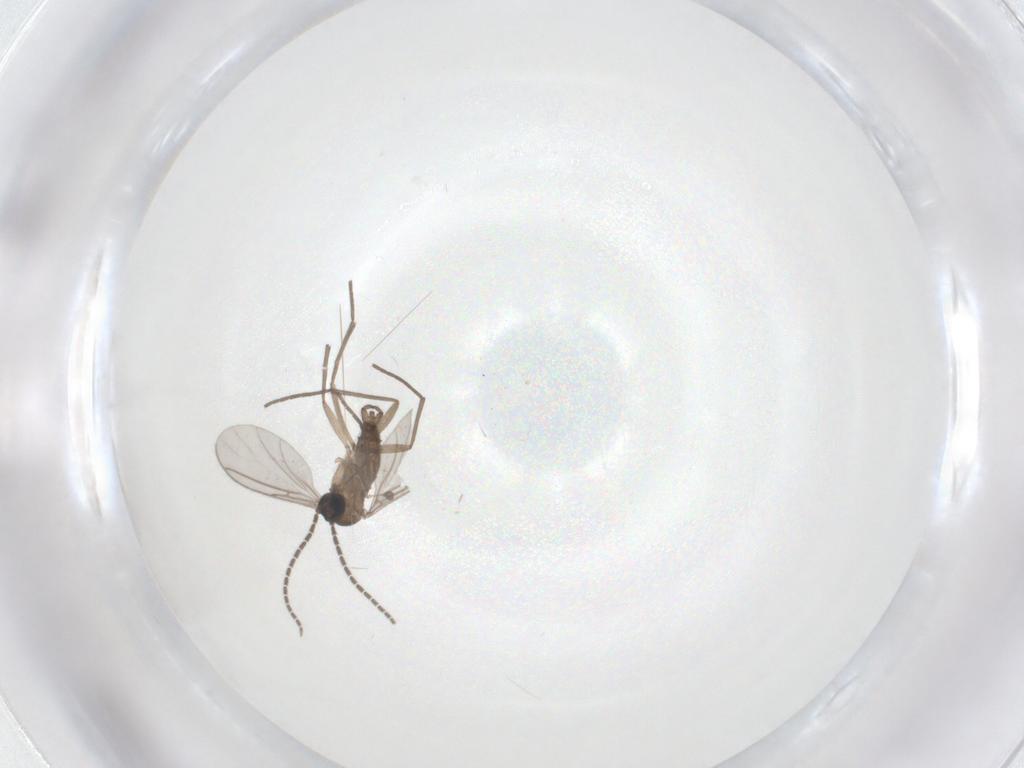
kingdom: Animalia
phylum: Arthropoda
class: Insecta
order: Diptera
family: Sciaridae
